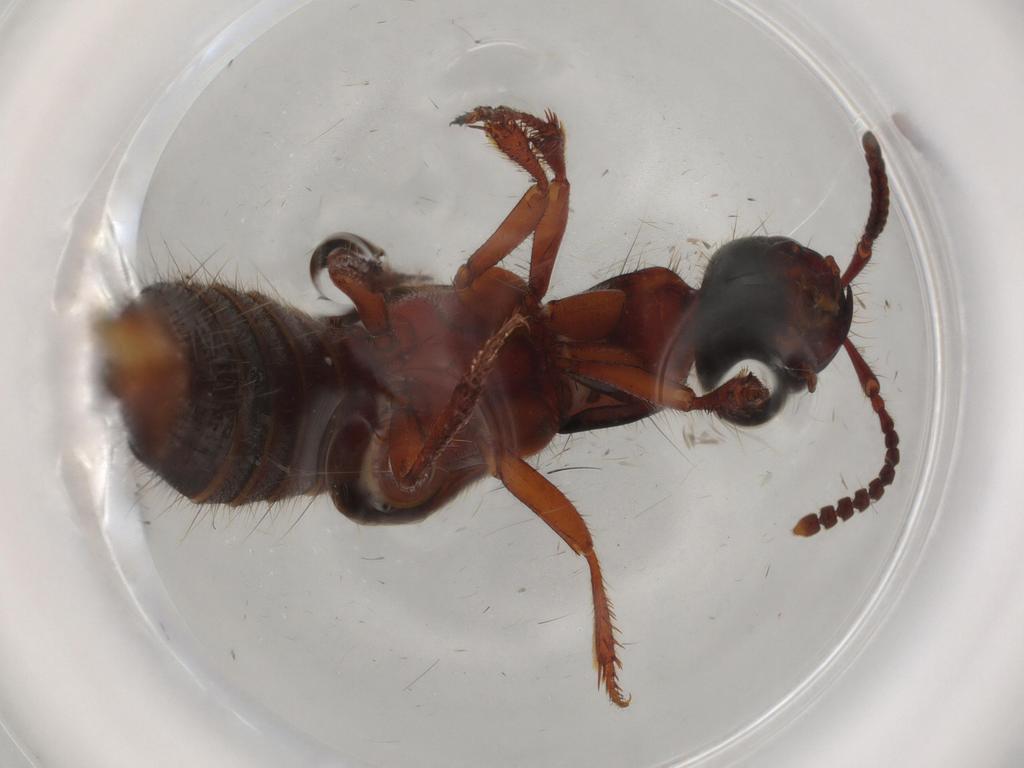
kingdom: Animalia
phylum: Arthropoda
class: Insecta
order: Coleoptera
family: Staphylinidae
